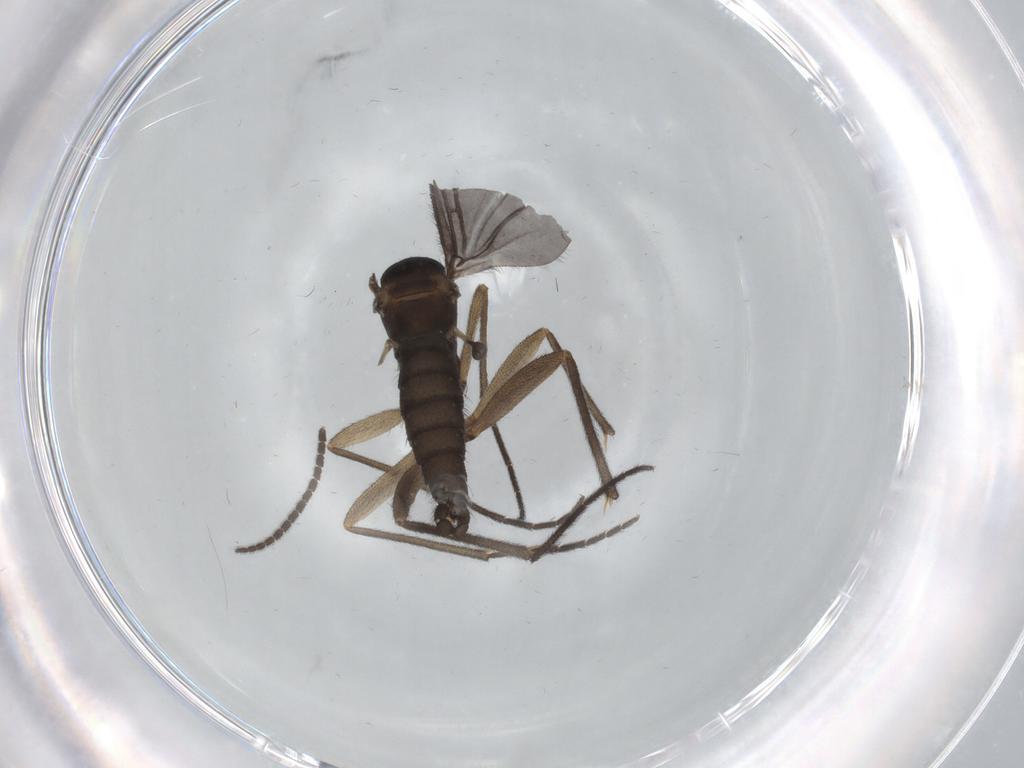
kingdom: Animalia
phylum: Arthropoda
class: Insecta
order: Diptera
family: Sciaridae
